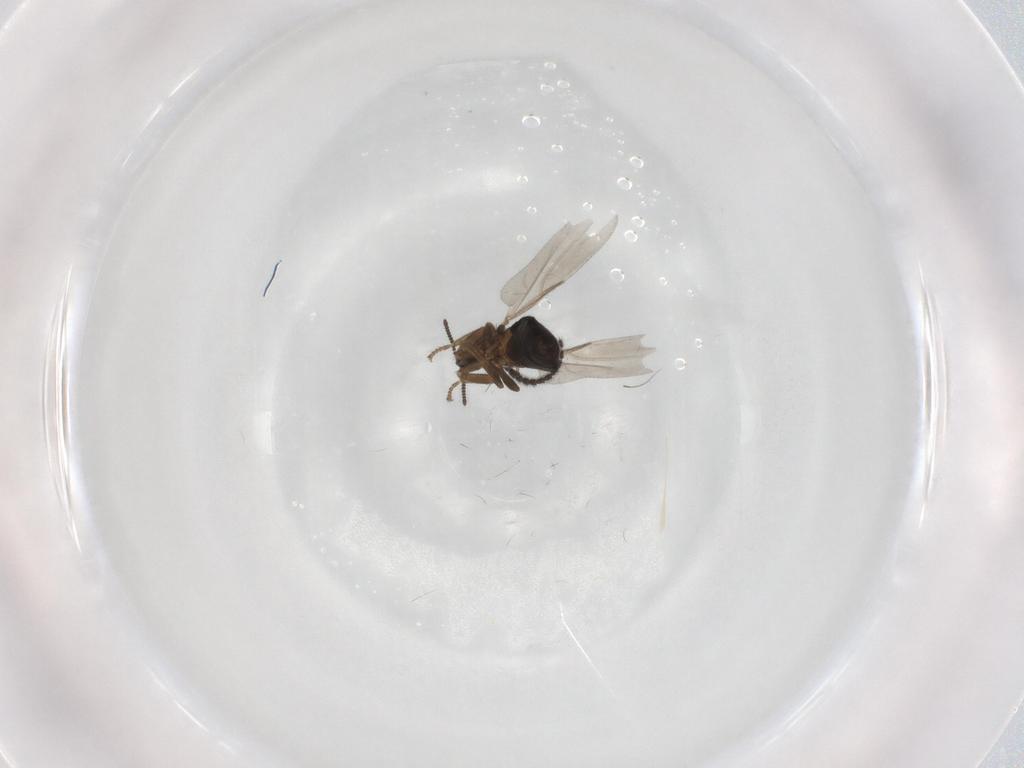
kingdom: Animalia
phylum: Arthropoda
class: Insecta
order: Diptera
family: Scatopsidae
